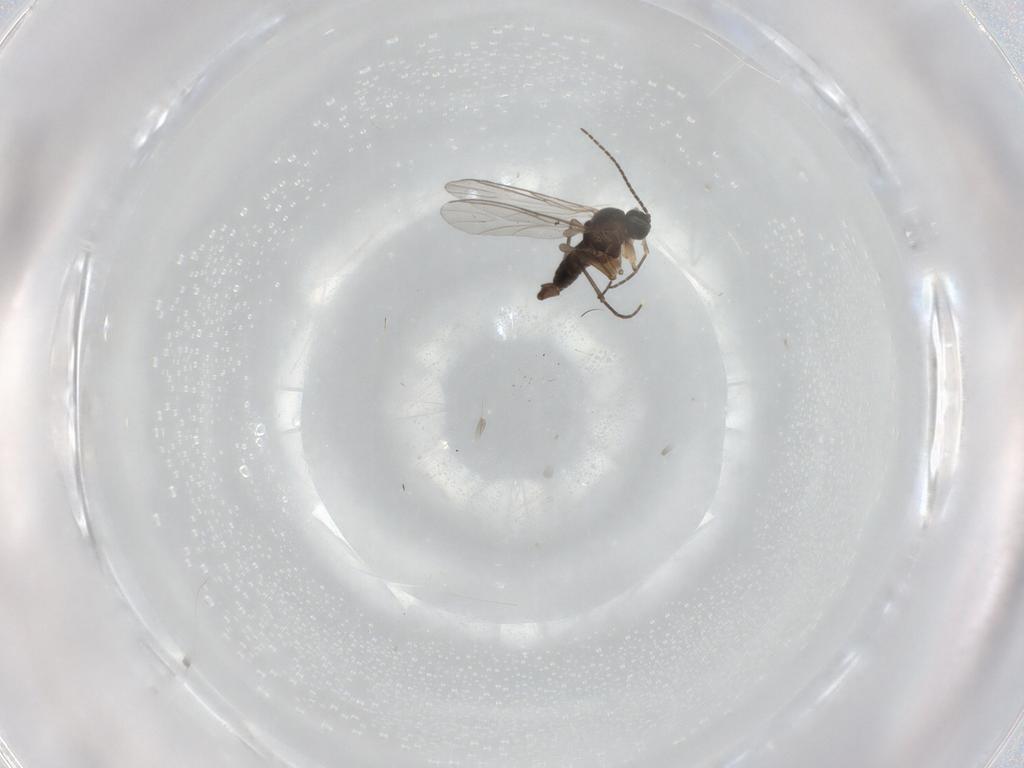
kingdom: Animalia
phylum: Arthropoda
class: Insecta
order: Diptera
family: Sciaridae
